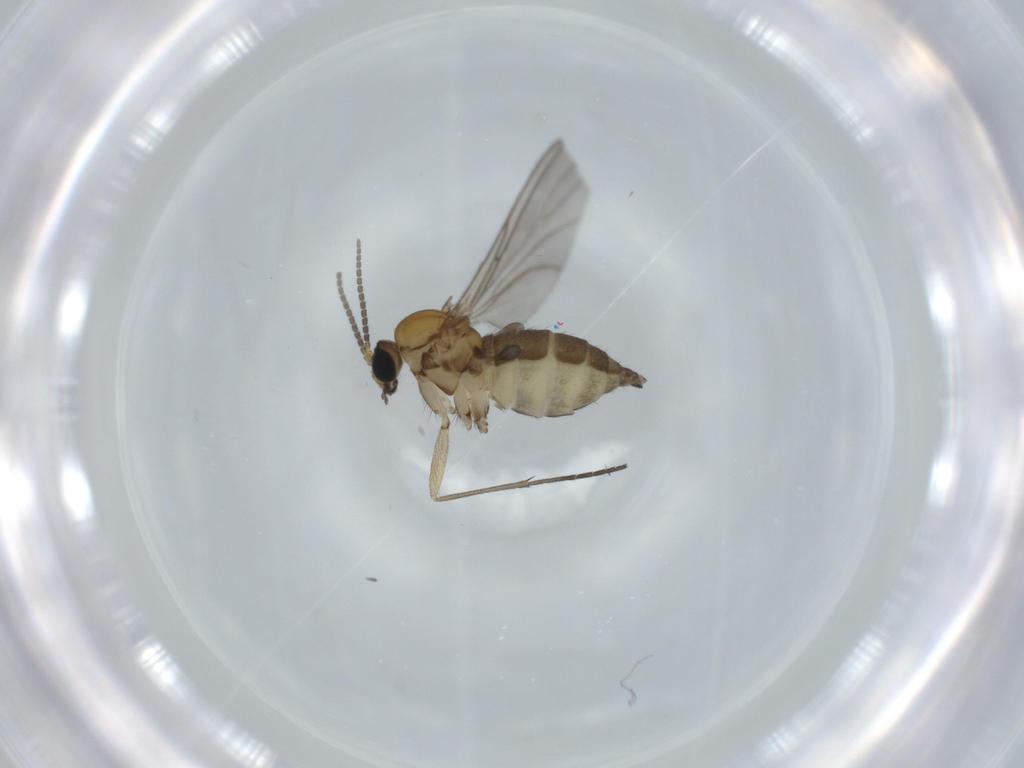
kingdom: Animalia
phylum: Arthropoda
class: Insecta
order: Diptera
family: Sciaridae
